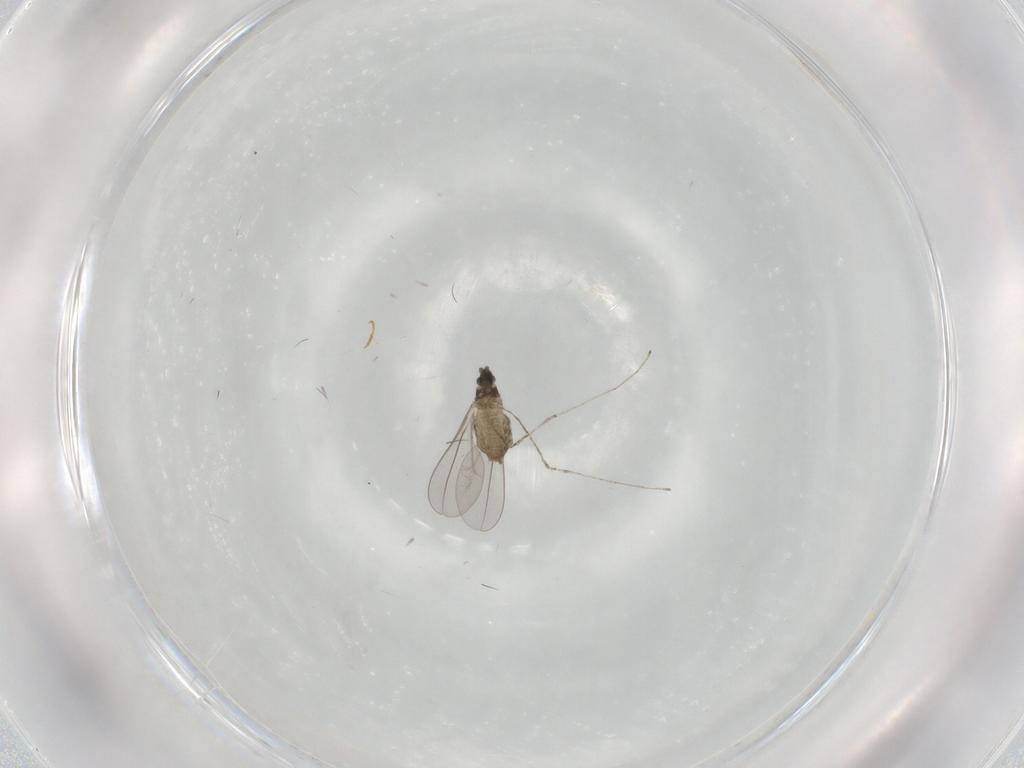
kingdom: Animalia
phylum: Arthropoda
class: Insecta
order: Diptera
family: Cecidomyiidae
